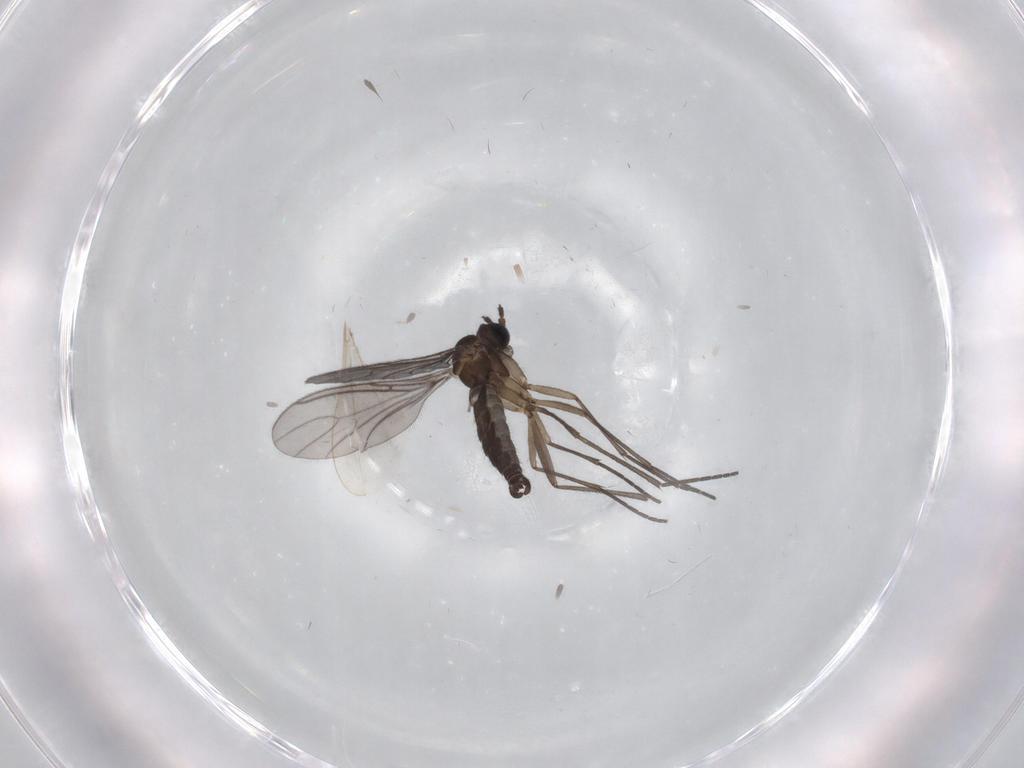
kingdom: Animalia
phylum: Arthropoda
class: Insecta
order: Diptera
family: Sciaridae
